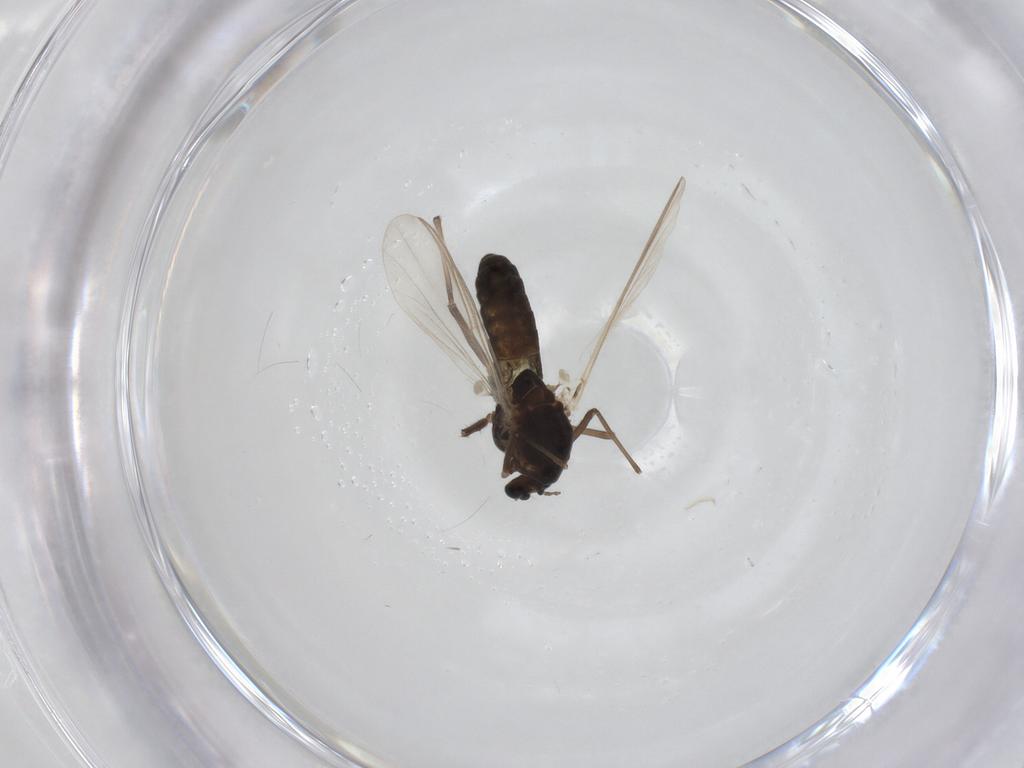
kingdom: Animalia
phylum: Arthropoda
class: Insecta
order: Diptera
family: Chironomidae
